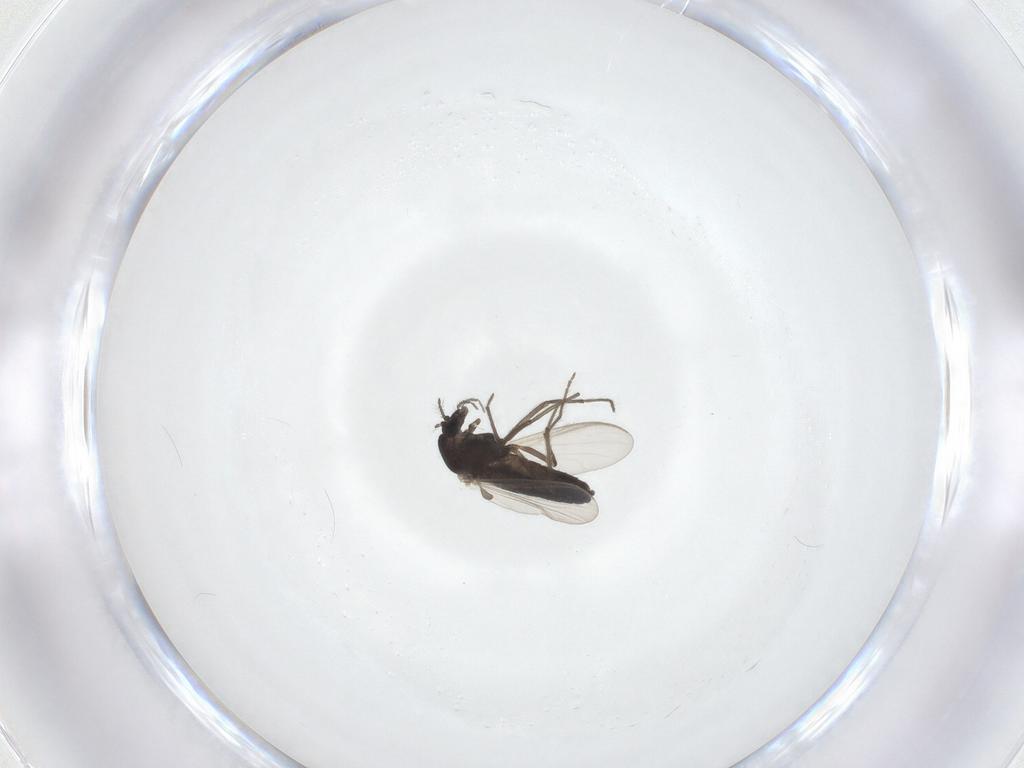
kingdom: Animalia
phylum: Arthropoda
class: Insecta
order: Diptera
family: Chironomidae
